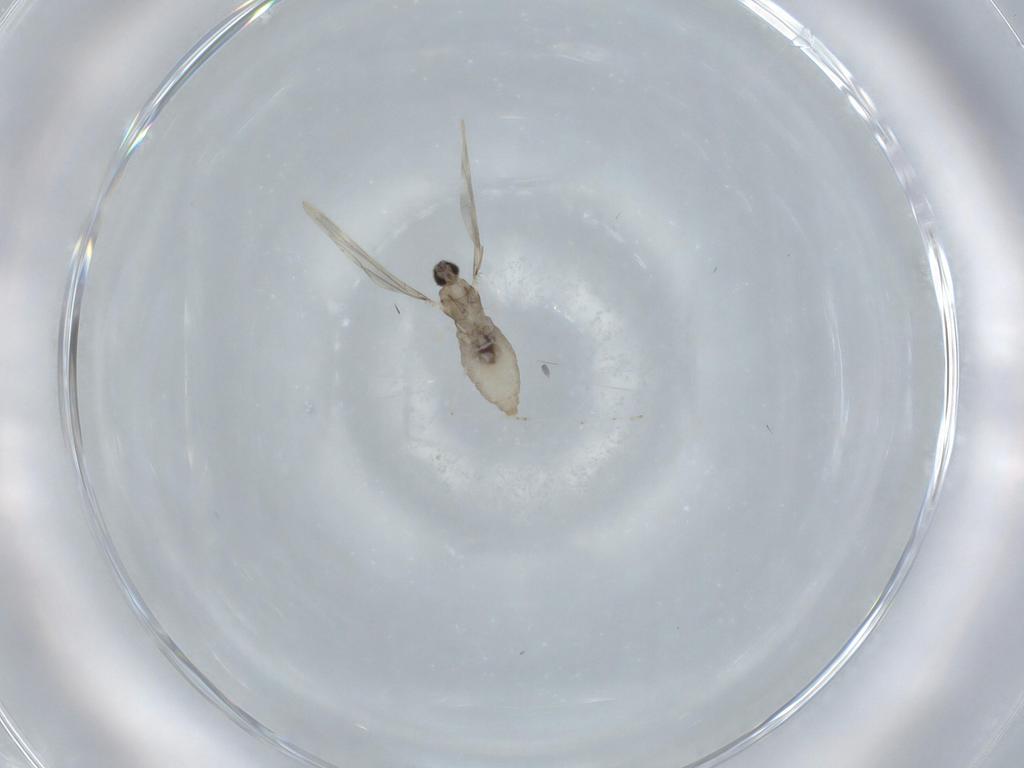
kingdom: Animalia
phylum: Arthropoda
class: Insecta
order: Diptera
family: Cecidomyiidae
